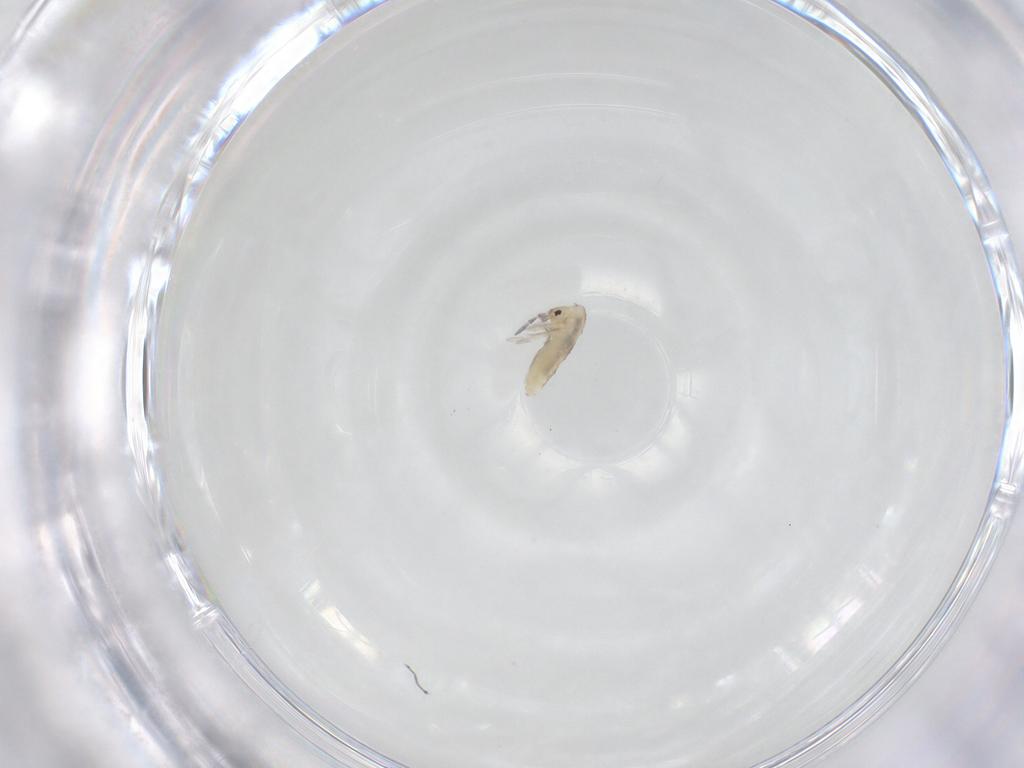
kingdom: Animalia
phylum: Arthropoda
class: Collembola
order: Entomobryomorpha
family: Entomobryidae
